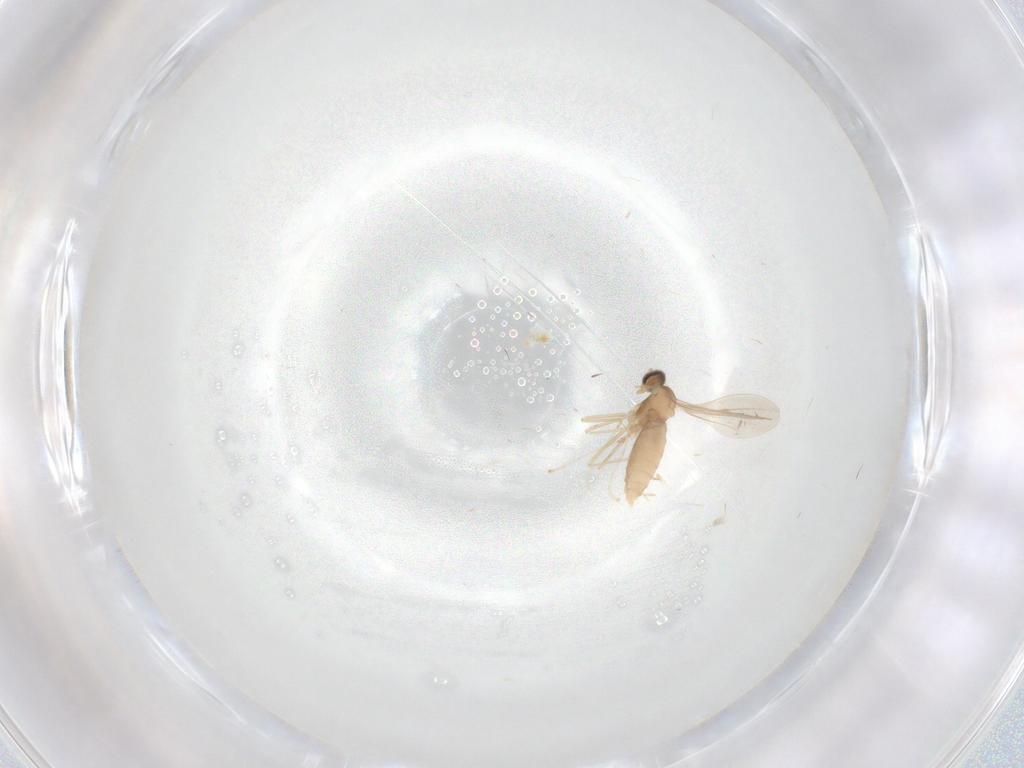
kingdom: Animalia
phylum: Arthropoda
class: Insecta
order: Diptera
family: Cecidomyiidae
